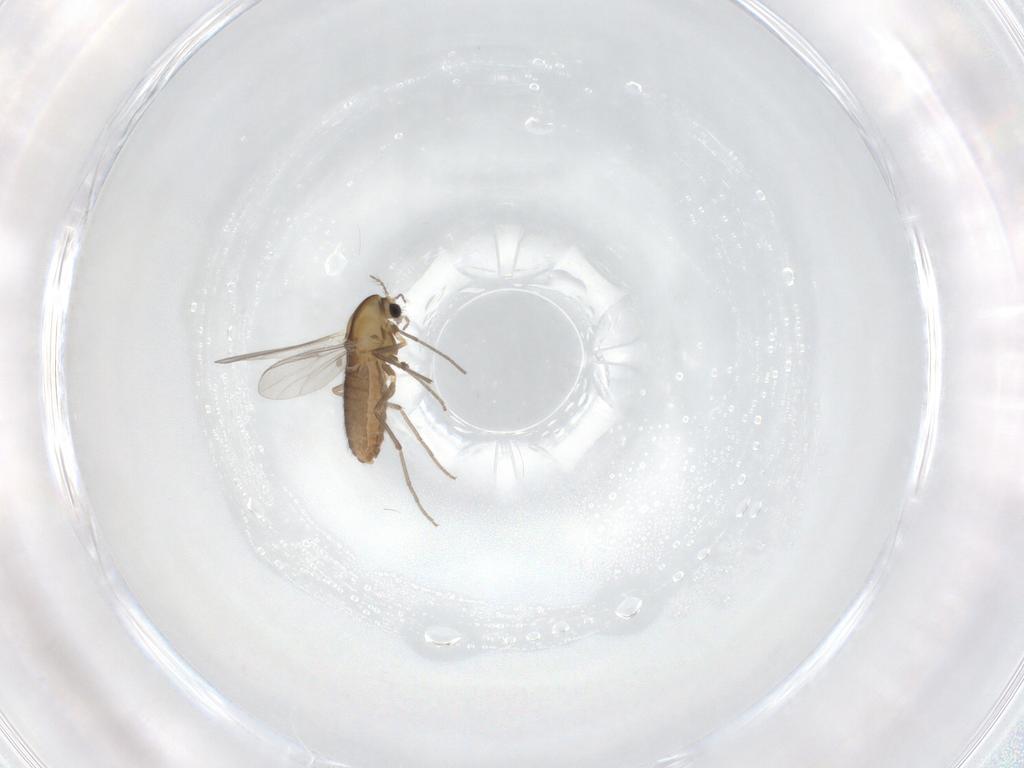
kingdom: Animalia
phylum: Arthropoda
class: Insecta
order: Diptera
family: Chironomidae
